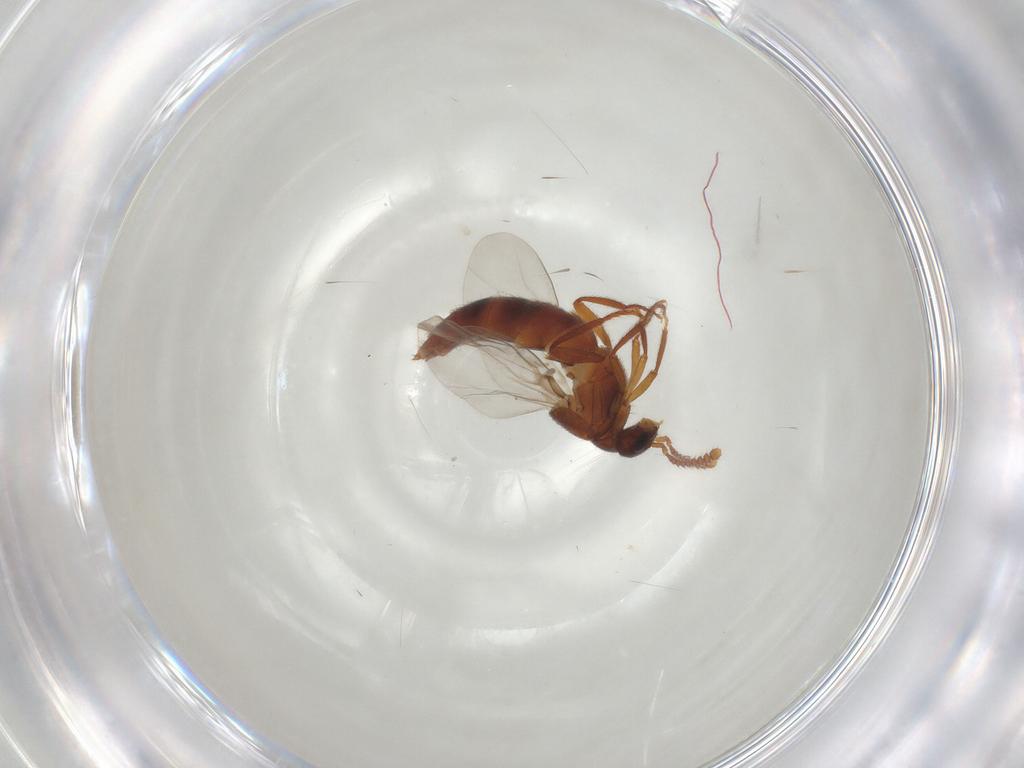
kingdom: Animalia
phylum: Arthropoda
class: Insecta
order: Coleoptera
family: Staphylinidae
